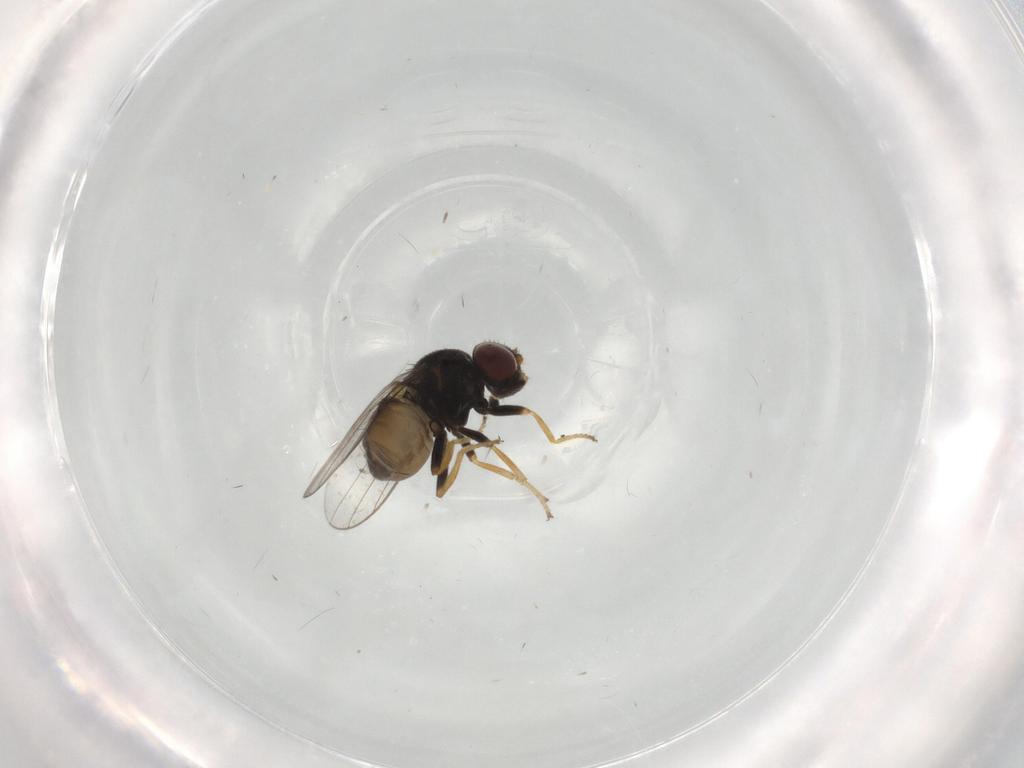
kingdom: Animalia
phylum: Arthropoda
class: Insecta
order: Diptera
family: Chloropidae
